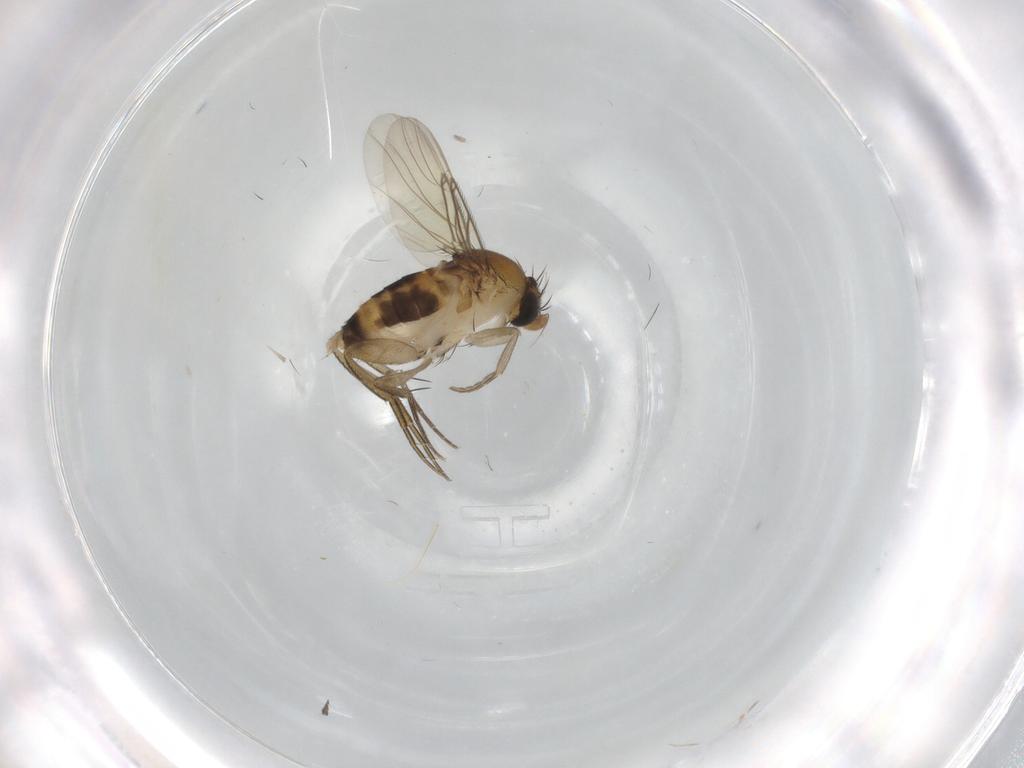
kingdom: Animalia
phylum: Arthropoda
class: Insecta
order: Diptera
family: Phoridae
